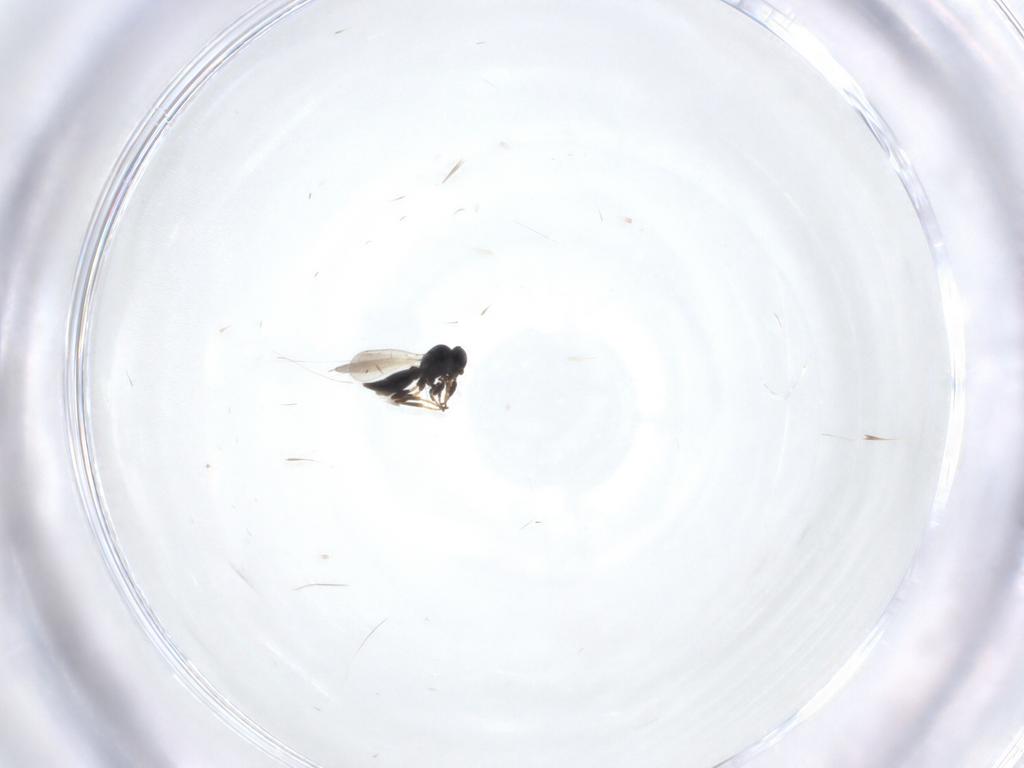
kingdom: Animalia
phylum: Arthropoda
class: Insecta
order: Hymenoptera
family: Platygastridae
